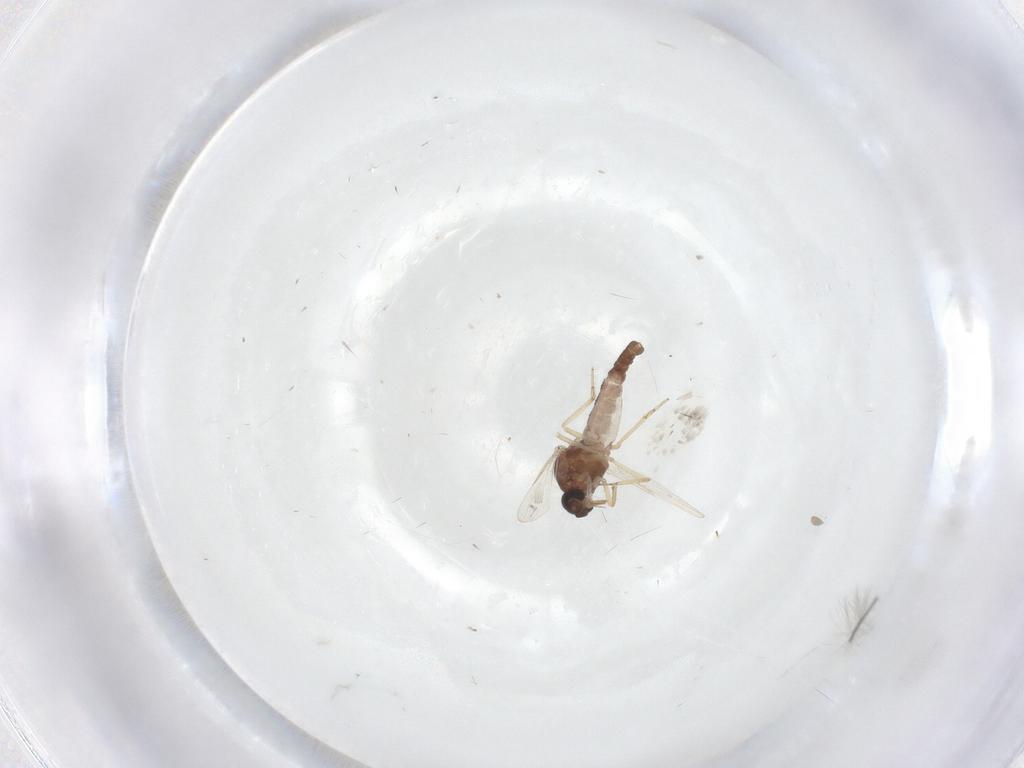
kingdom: Animalia
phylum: Arthropoda
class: Insecta
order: Diptera
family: Ceratopogonidae
